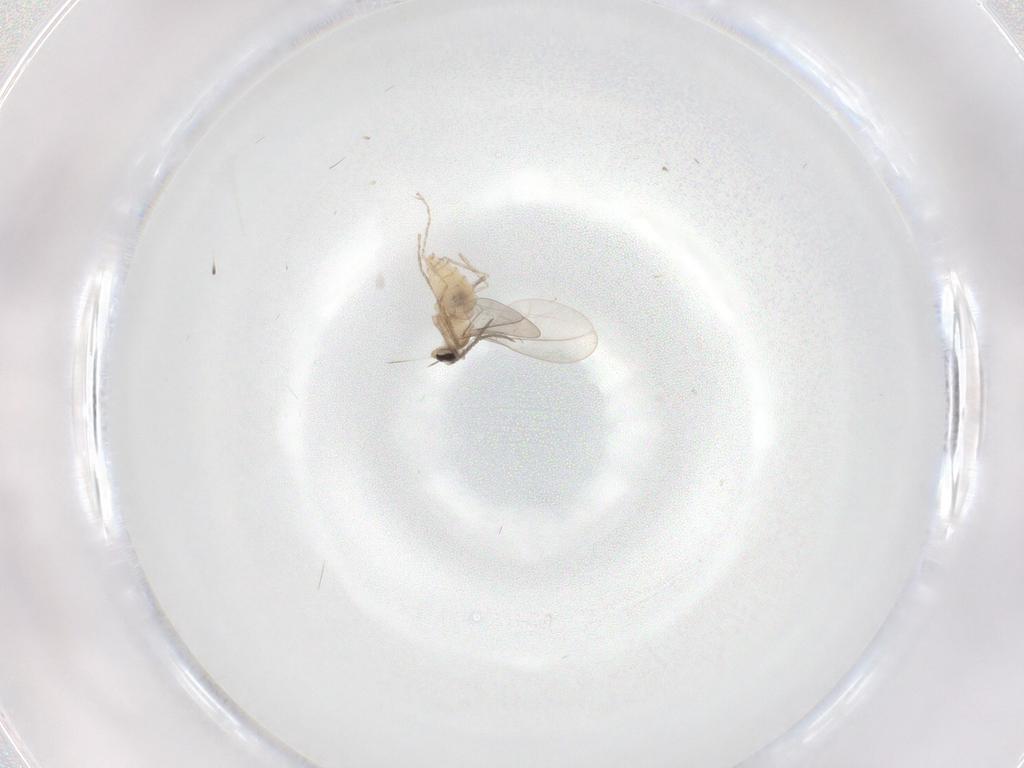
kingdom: Animalia
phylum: Arthropoda
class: Insecta
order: Diptera
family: Cecidomyiidae
